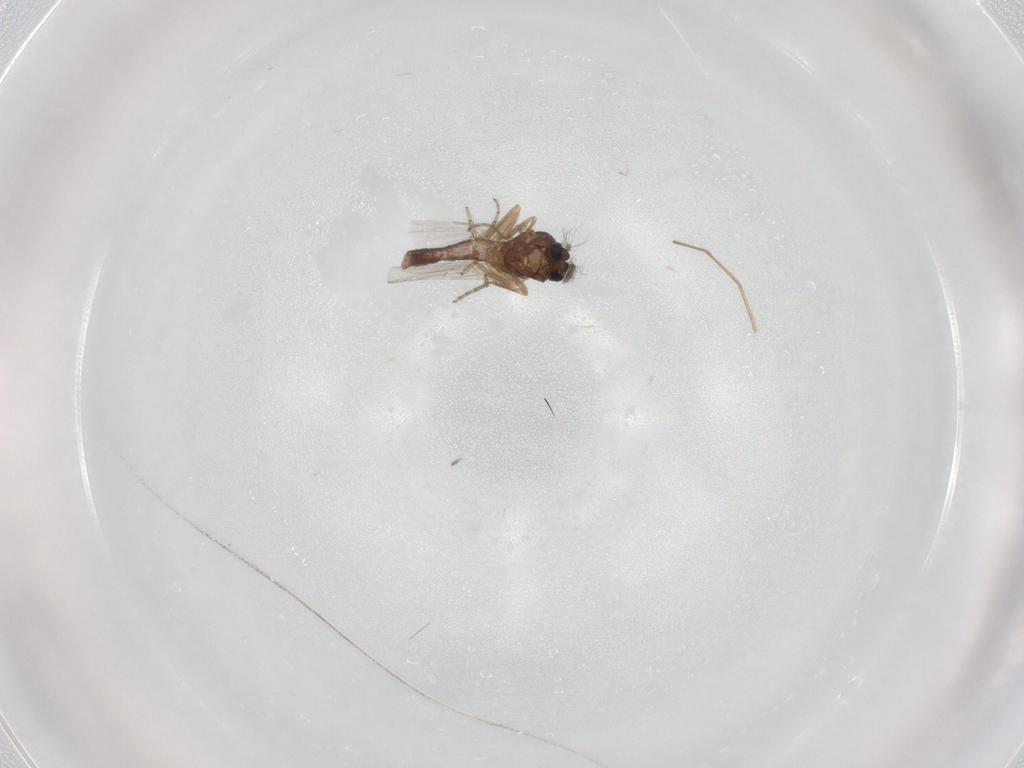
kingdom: Animalia
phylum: Arthropoda
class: Insecta
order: Diptera
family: Ceratopogonidae
